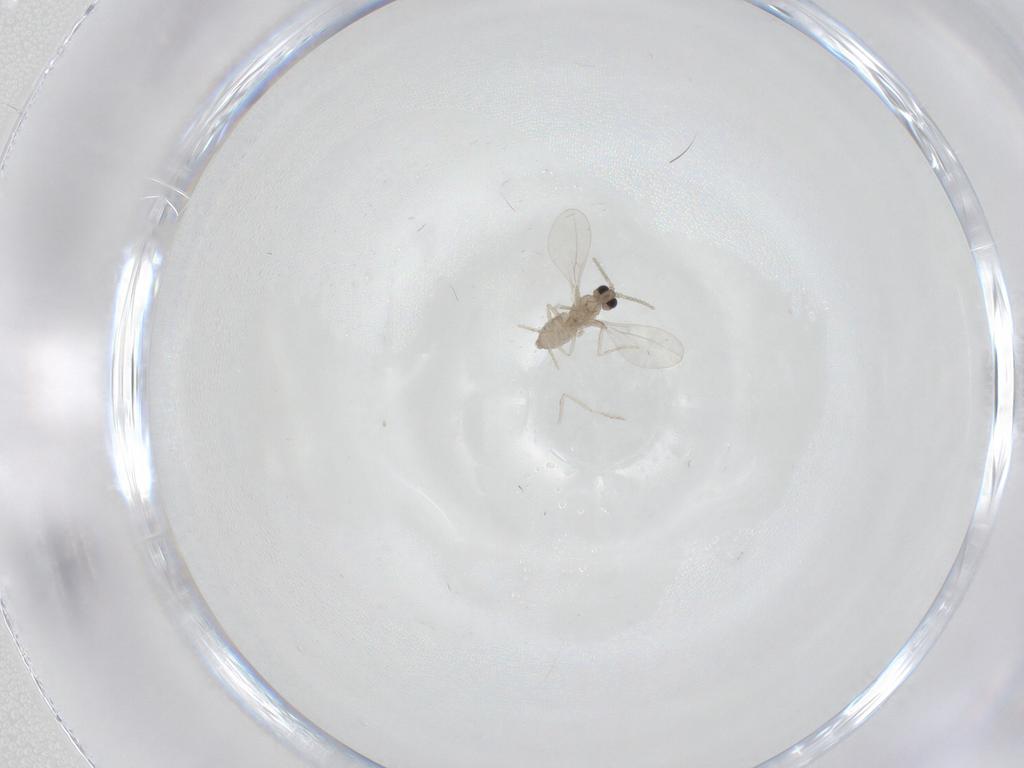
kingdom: Animalia
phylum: Arthropoda
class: Insecta
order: Diptera
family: Cecidomyiidae
